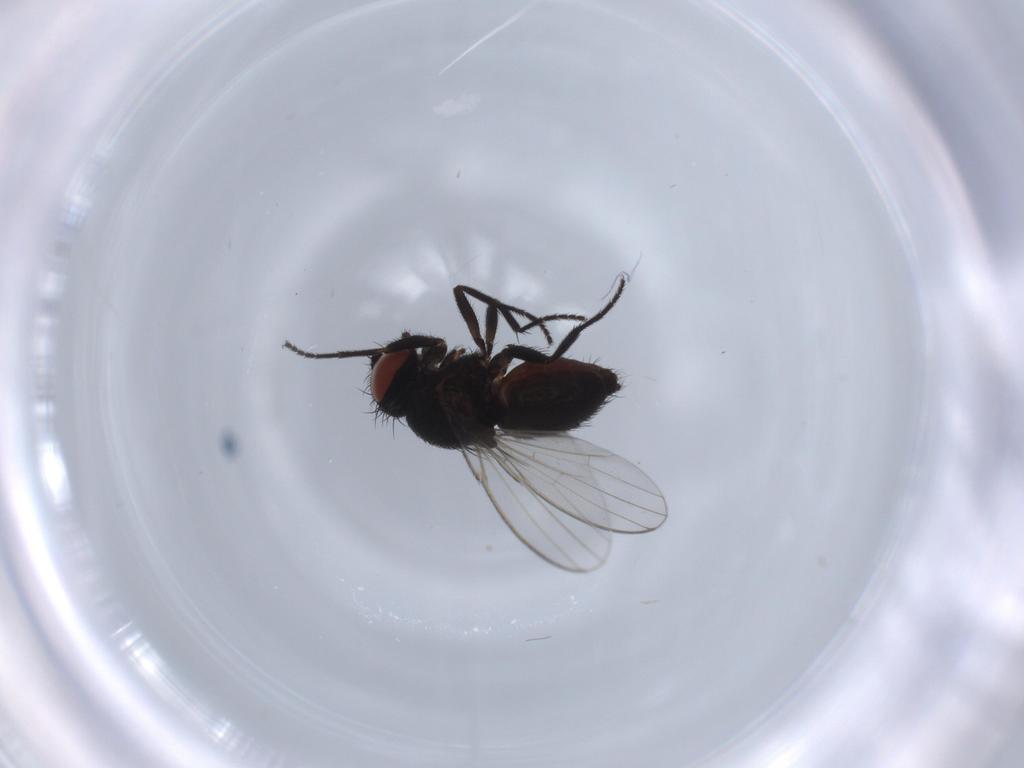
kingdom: Animalia
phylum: Arthropoda
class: Insecta
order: Diptera
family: Milichiidae
